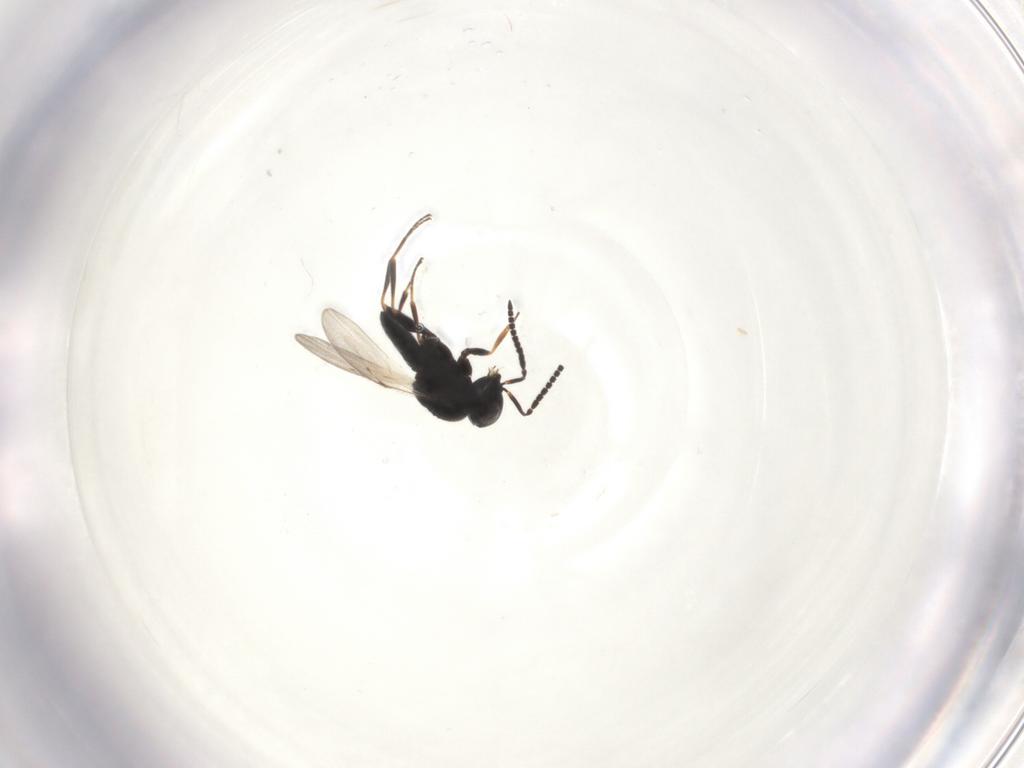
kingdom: Animalia
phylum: Arthropoda
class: Insecta
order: Hymenoptera
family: Scelionidae
